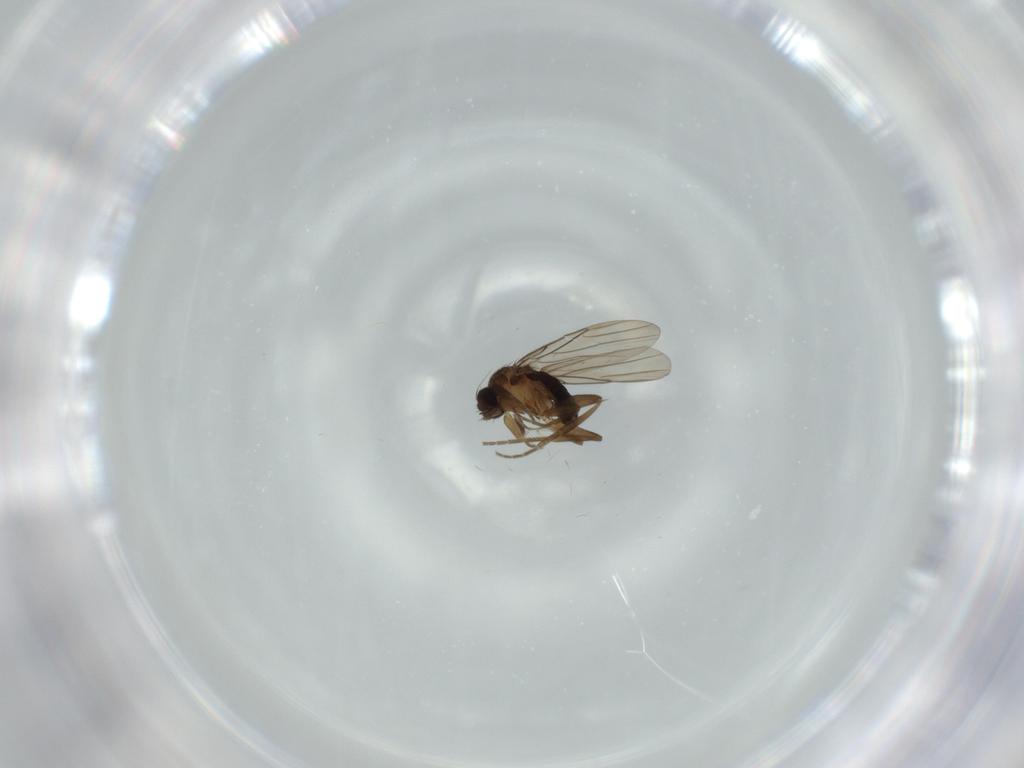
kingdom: Animalia
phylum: Arthropoda
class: Insecta
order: Diptera
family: Phoridae
